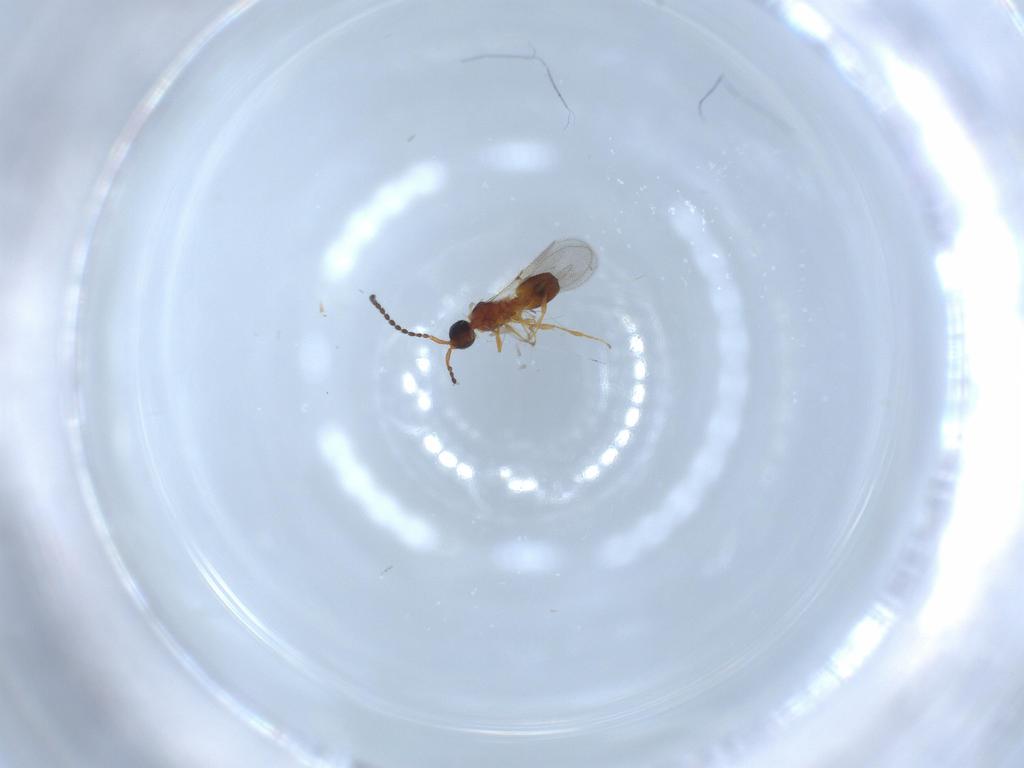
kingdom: Animalia
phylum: Arthropoda
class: Insecta
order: Hymenoptera
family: Diapriidae
